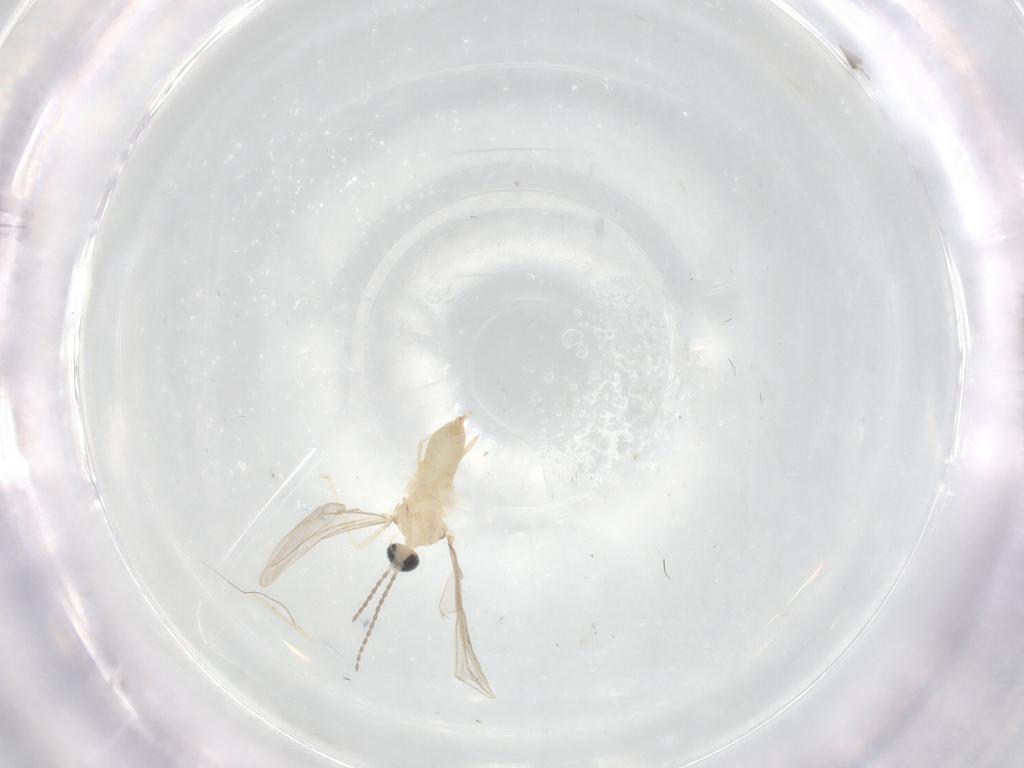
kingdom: Animalia
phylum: Arthropoda
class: Insecta
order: Diptera
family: Cecidomyiidae
